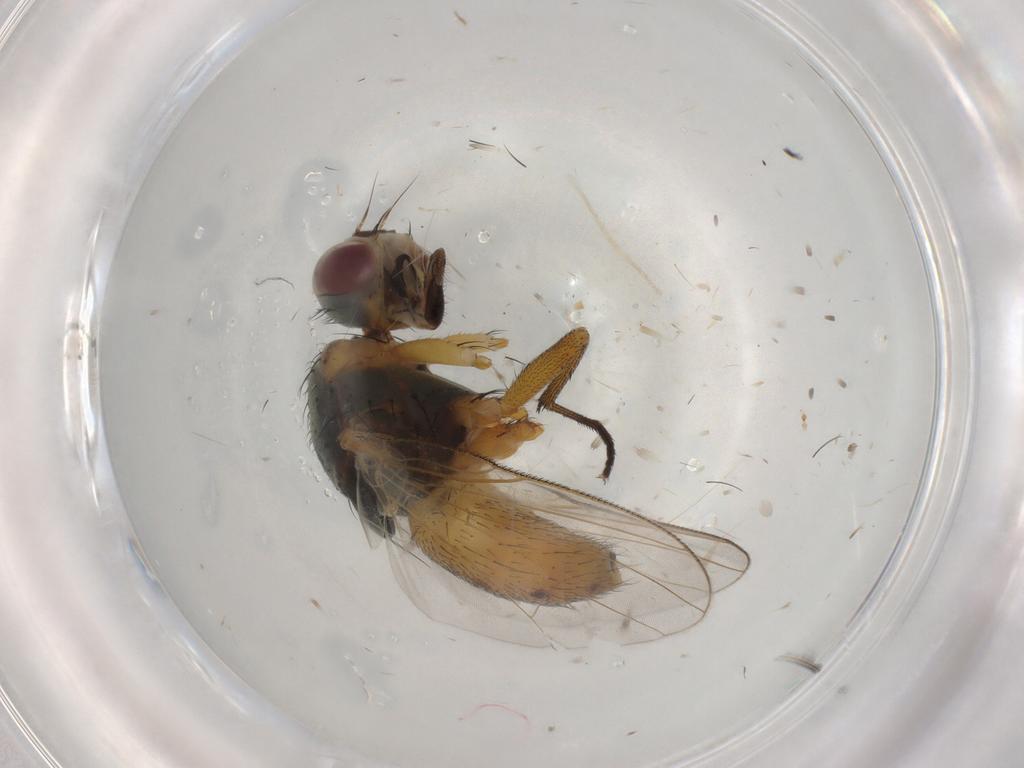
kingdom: Animalia
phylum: Arthropoda
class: Insecta
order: Diptera
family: Muscidae
